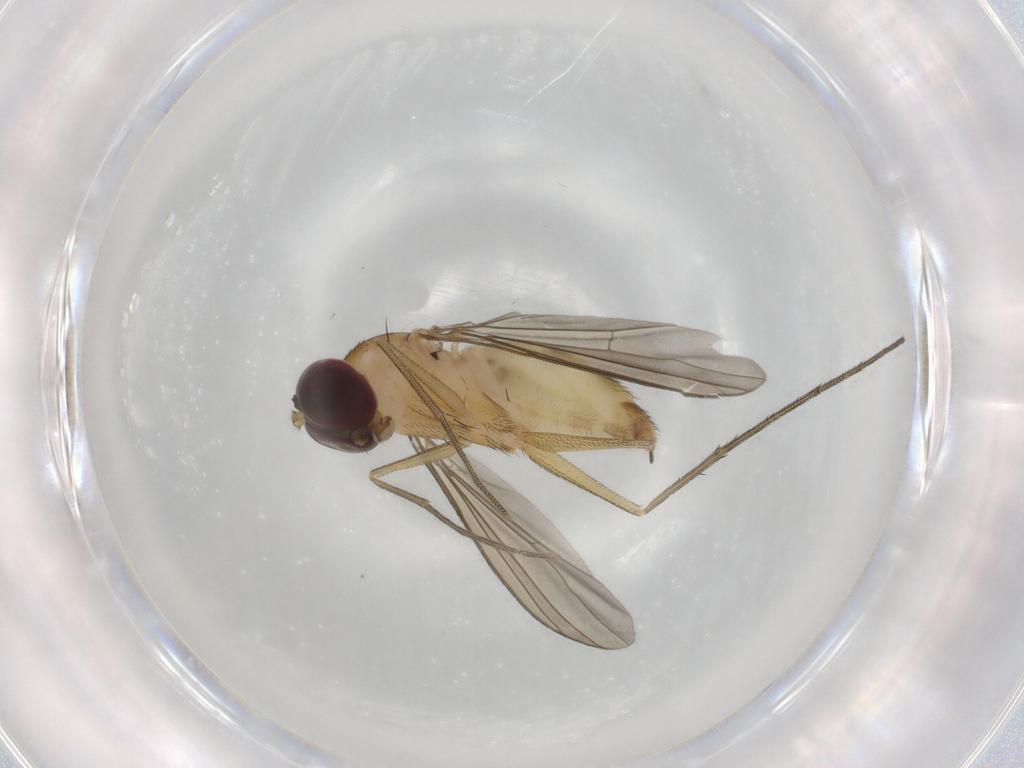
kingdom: Animalia
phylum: Arthropoda
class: Insecta
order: Diptera
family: Dolichopodidae
